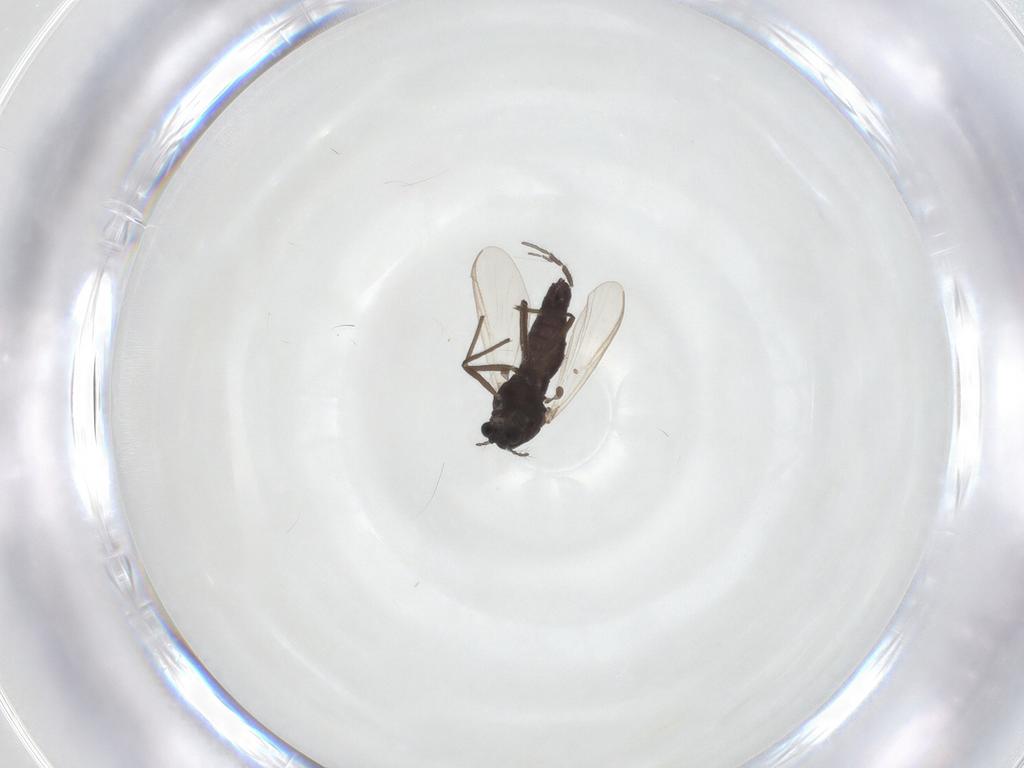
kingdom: Animalia
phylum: Arthropoda
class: Insecta
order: Diptera
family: Chironomidae
